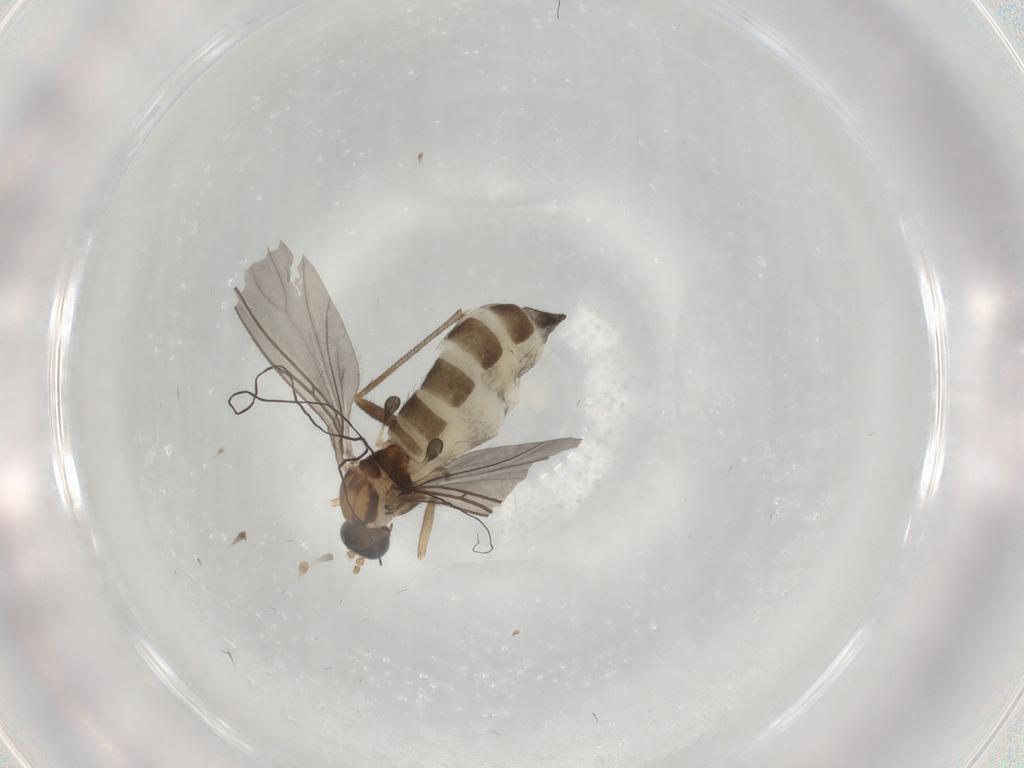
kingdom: Animalia
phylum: Arthropoda
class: Insecta
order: Diptera
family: Sciaridae
